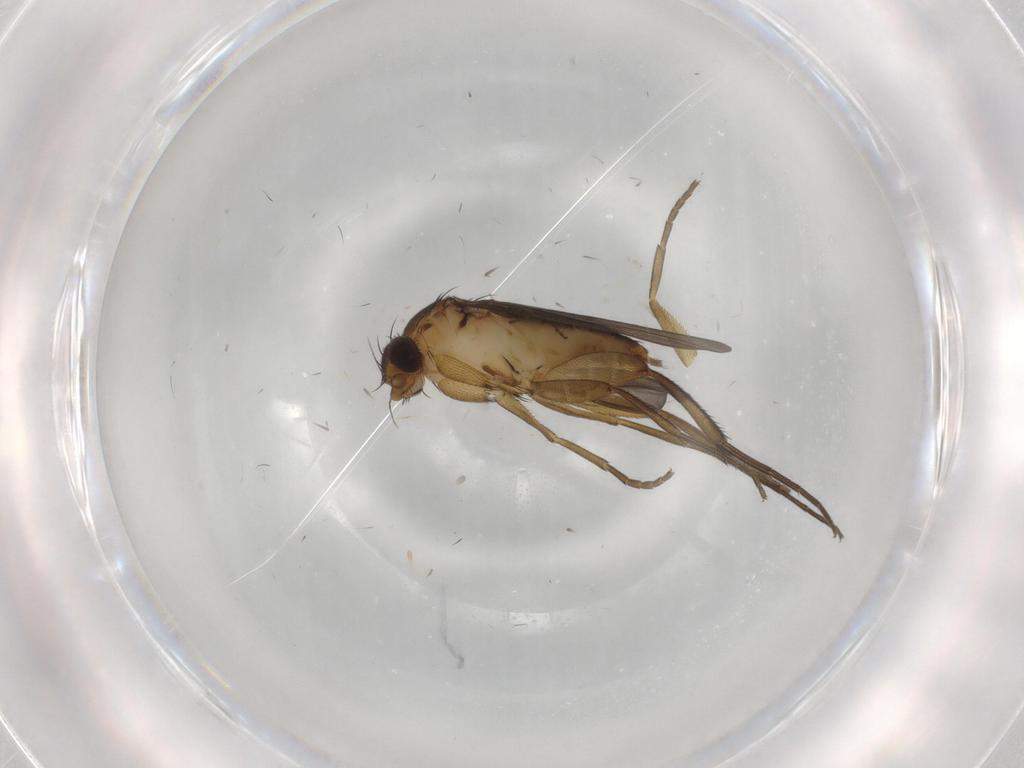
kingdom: Animalia
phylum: Arthropoda
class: Insecta
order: Diptera
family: Phoridae
